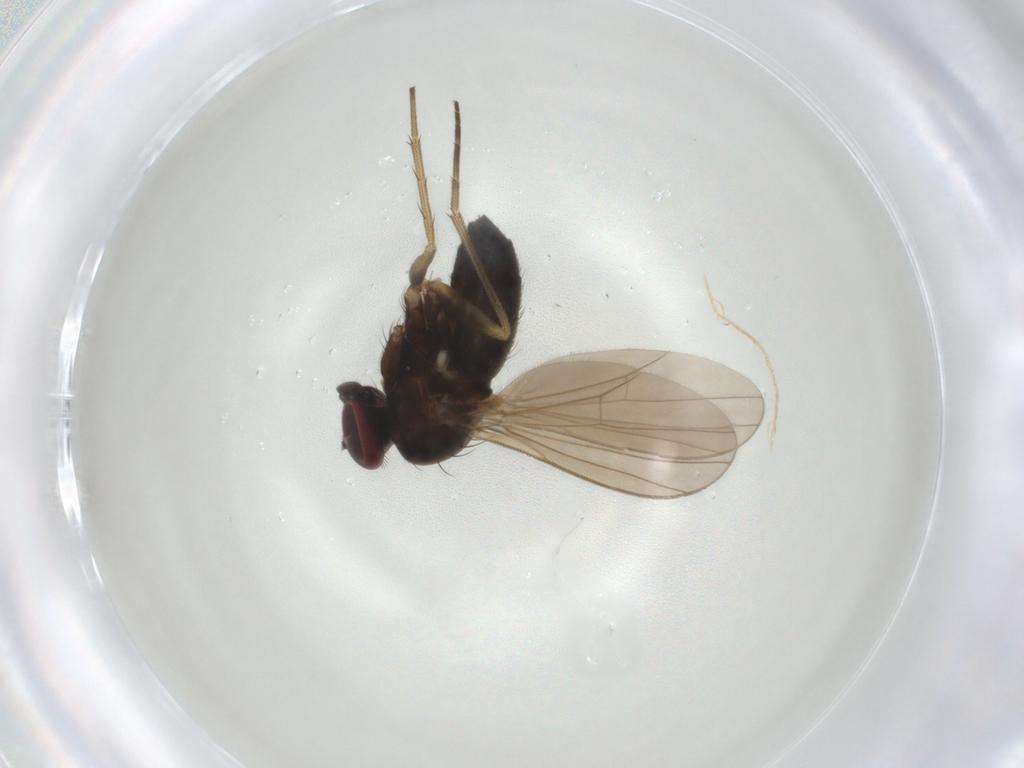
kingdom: Animalia
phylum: Arthropoda
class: Insecta
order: Diptera
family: Dolichopodidae
